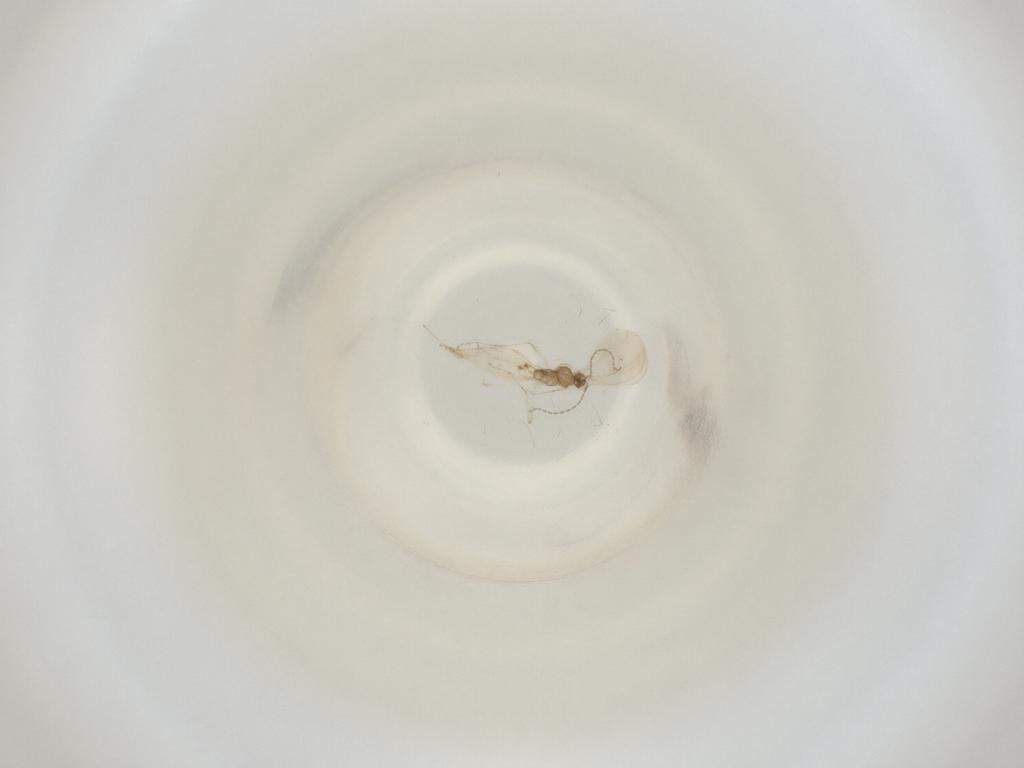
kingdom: Animalia
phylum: Arthropoda
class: Insecta
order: Diptera
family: Cecidomyiidae
